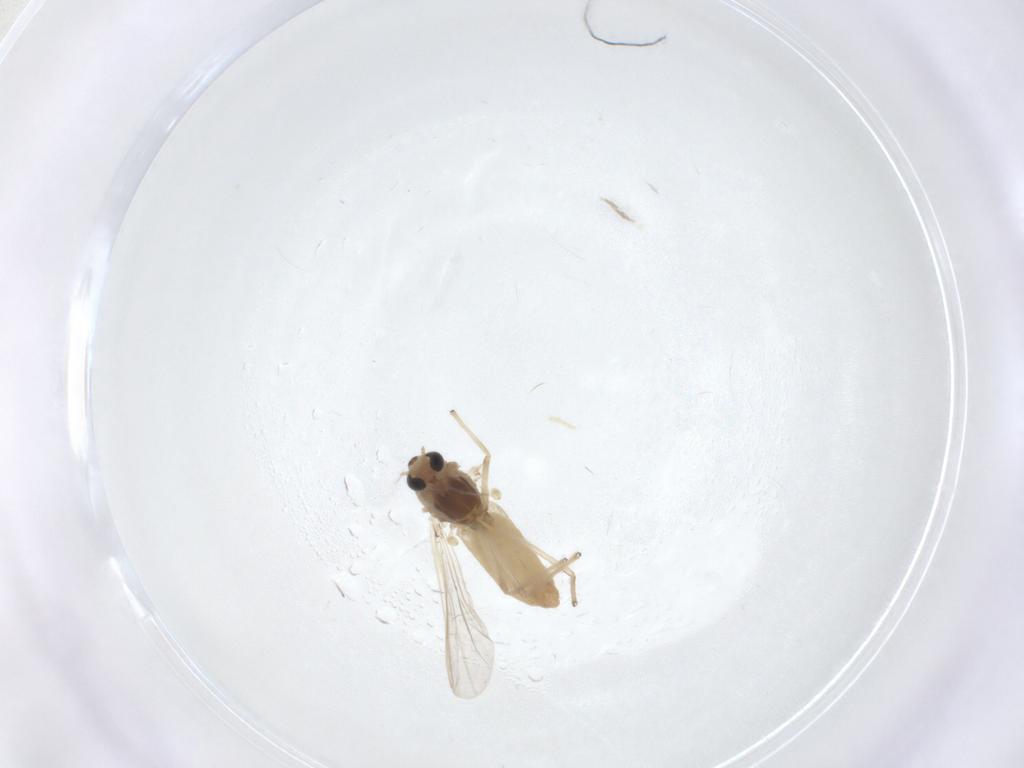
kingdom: Animalia
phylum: Arthropoda
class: Insecta
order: Diptera
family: Chironomidae
